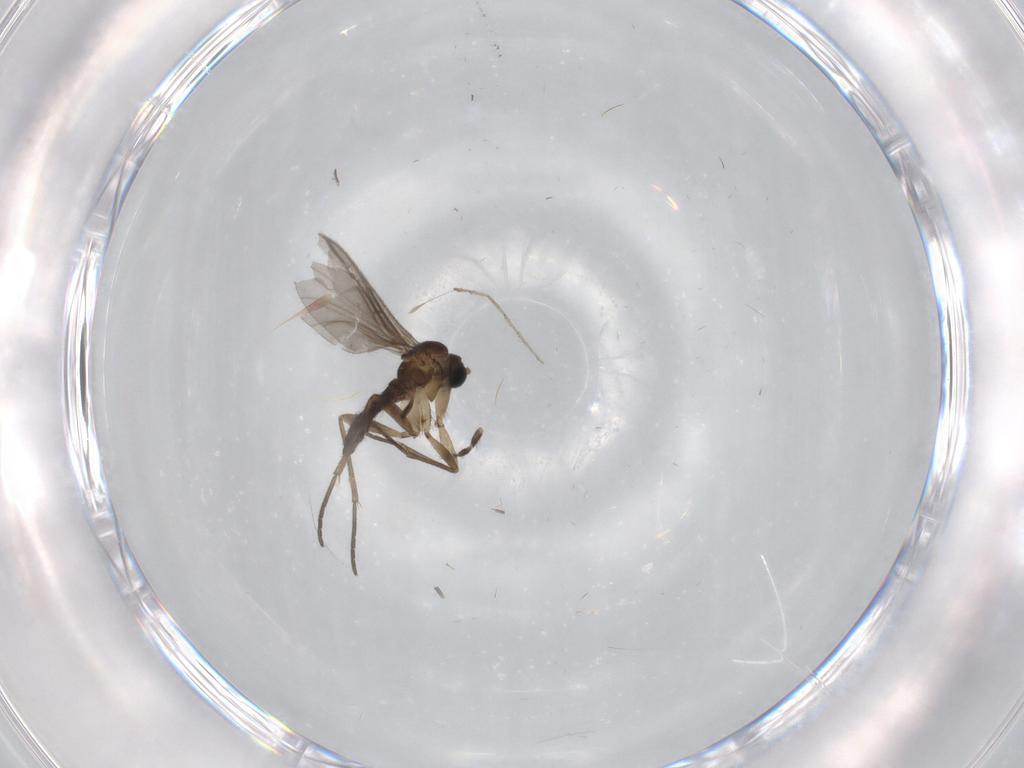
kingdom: Animalia
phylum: Arthropoda
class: Insecta
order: Diptera
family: Sciaridae
